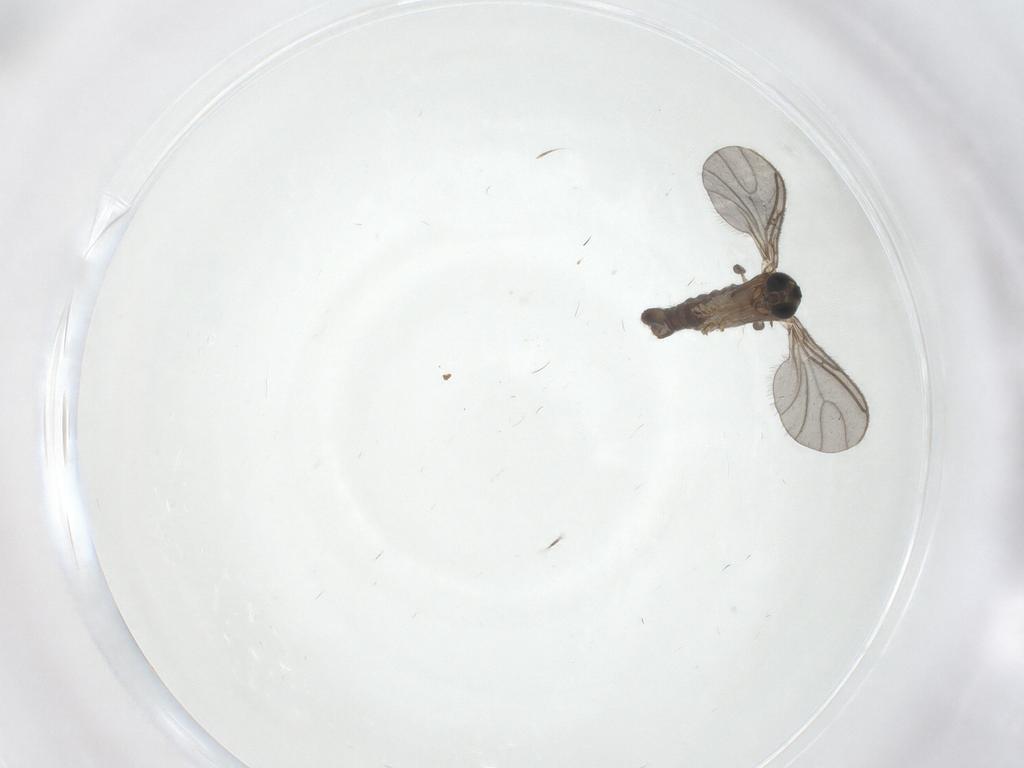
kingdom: Animalia
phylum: Arthropoda
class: Insecta
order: Diptera
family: Sciaridae
